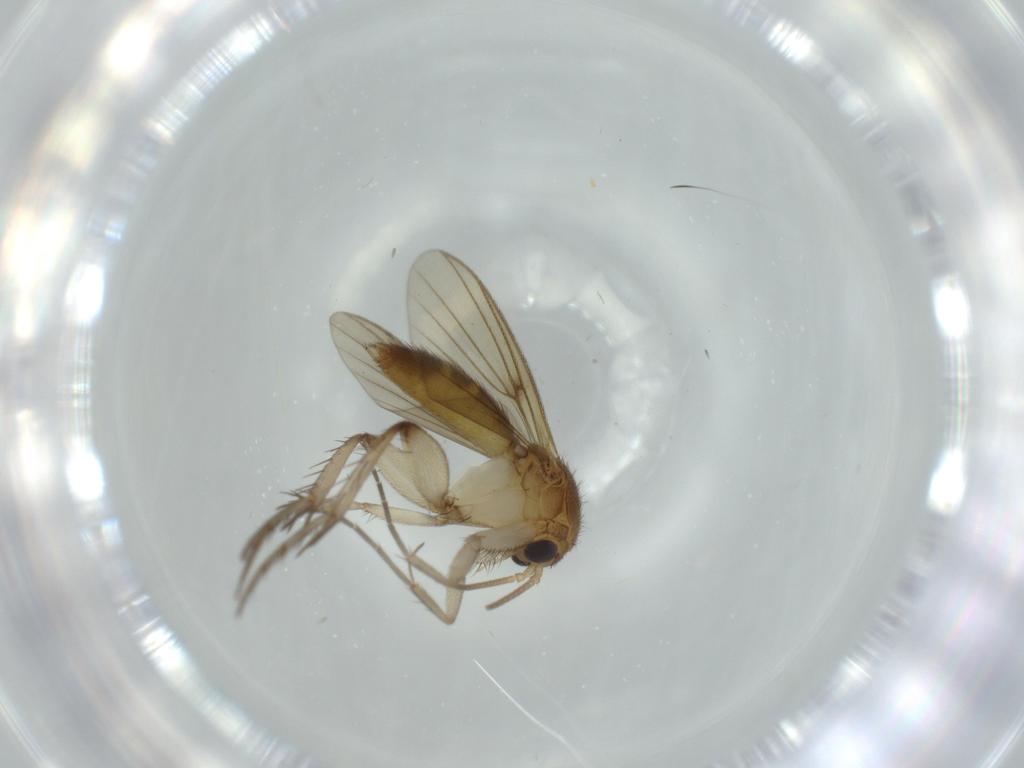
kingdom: Animalia
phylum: Arthropoda
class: Insecta
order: Diptera
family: Mycetophilidae
